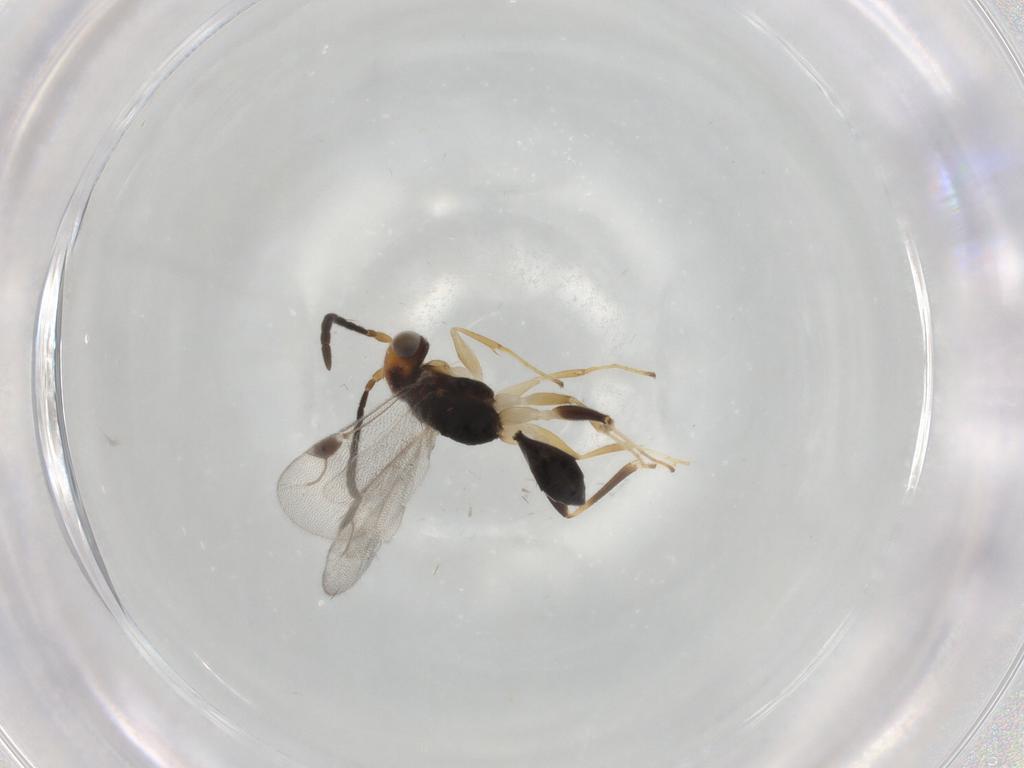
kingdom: Animalia
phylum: Arthropoda
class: Insecta
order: Hymenoptera
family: Dryinidae
